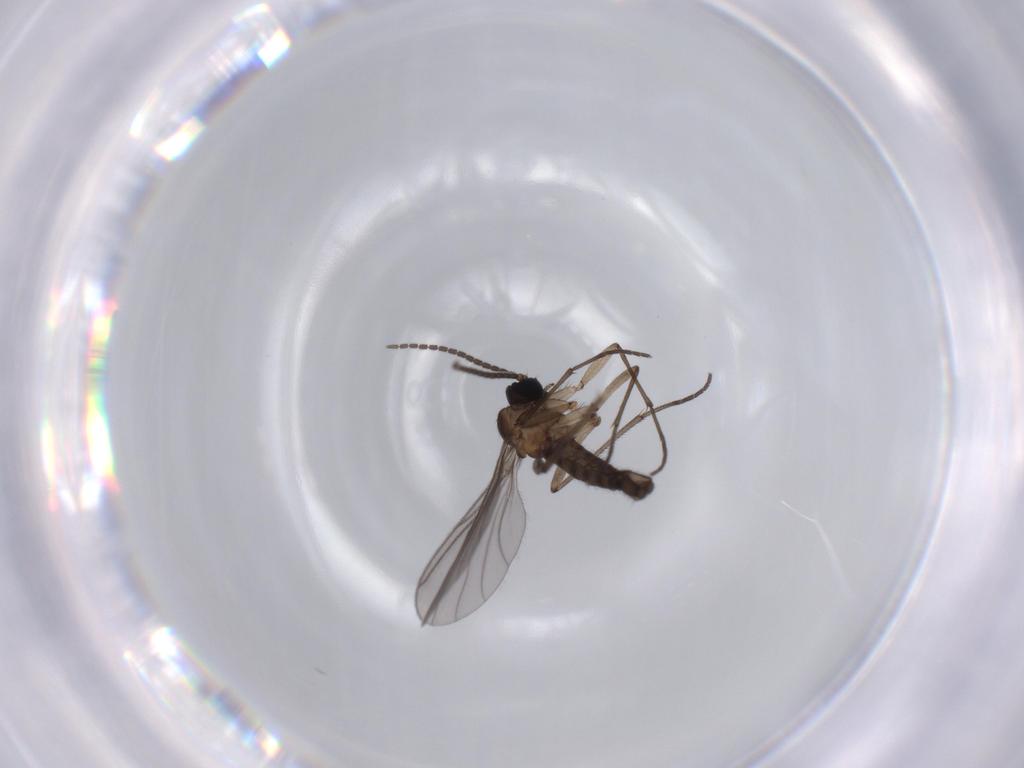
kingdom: Animalia
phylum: Arthropoda
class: Insecta
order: Diptera
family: Sciaridae
